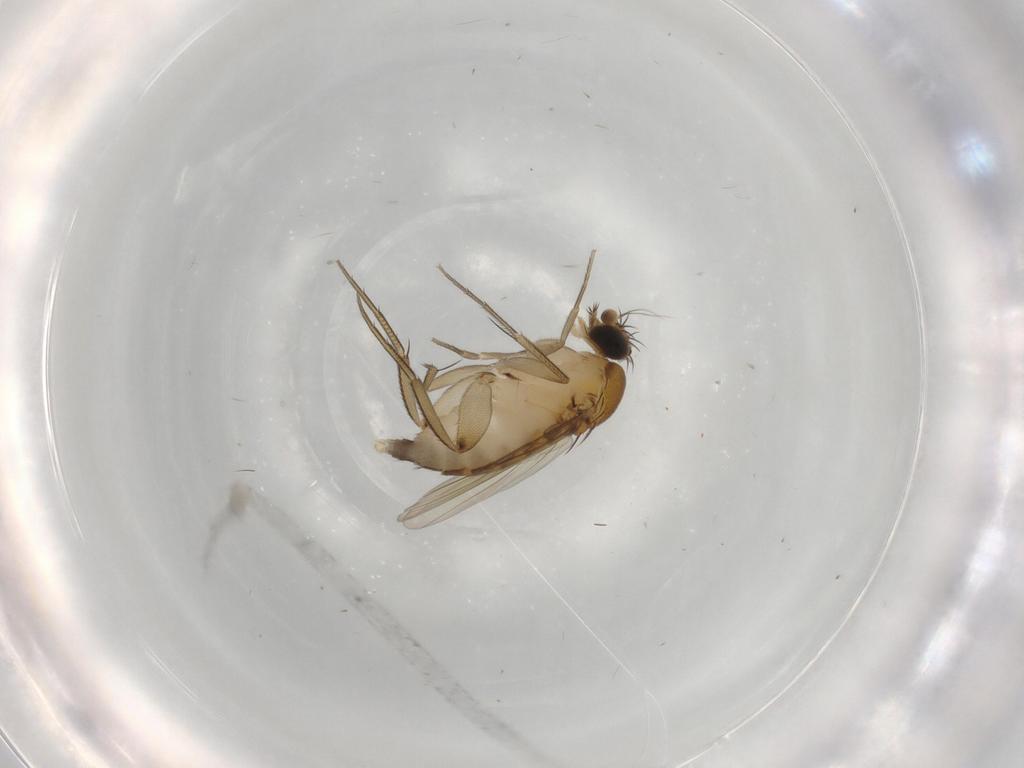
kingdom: Animalia
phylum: Arthropoda
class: Insecta
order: Diptera
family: Phoridae
